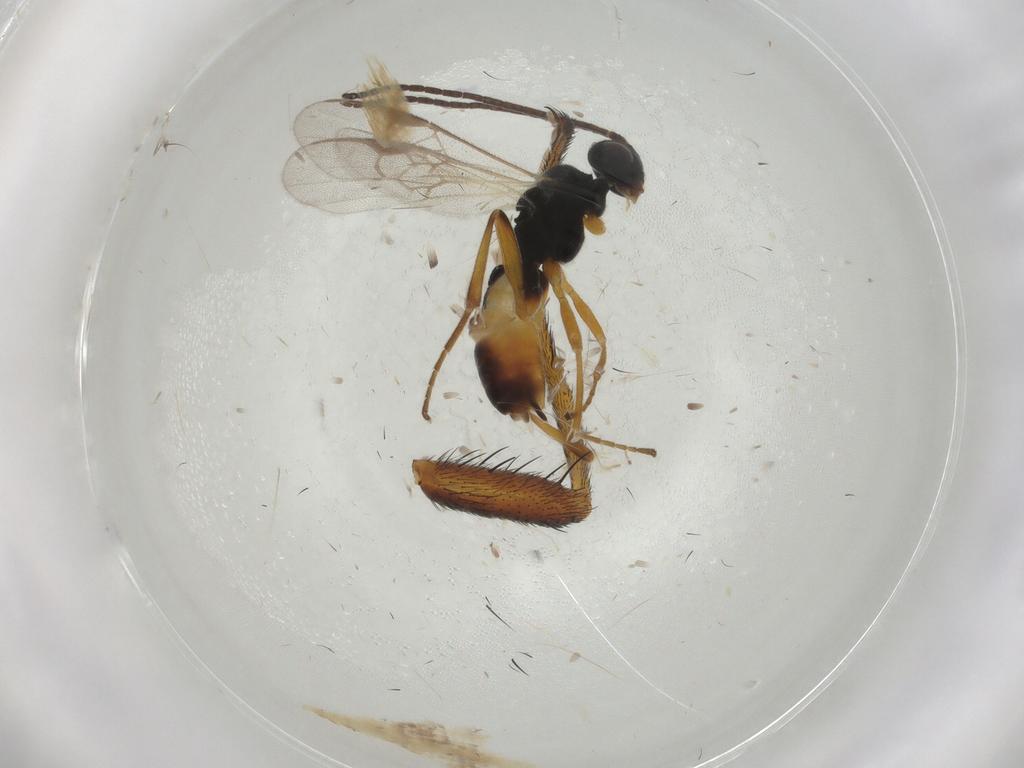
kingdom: Animalia
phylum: Arthropoda
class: Insecta
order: Hymenoptera
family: Braconidae
